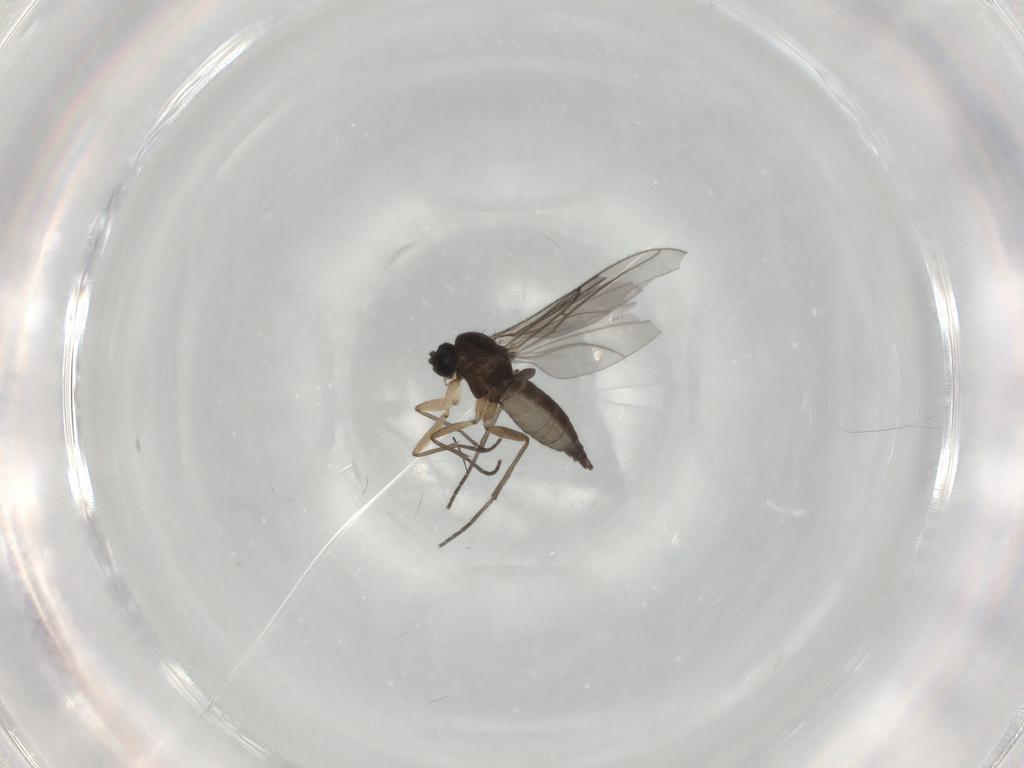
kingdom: Animalia
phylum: Arthropoda
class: Insecta
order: Diptera
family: Sciaridae
